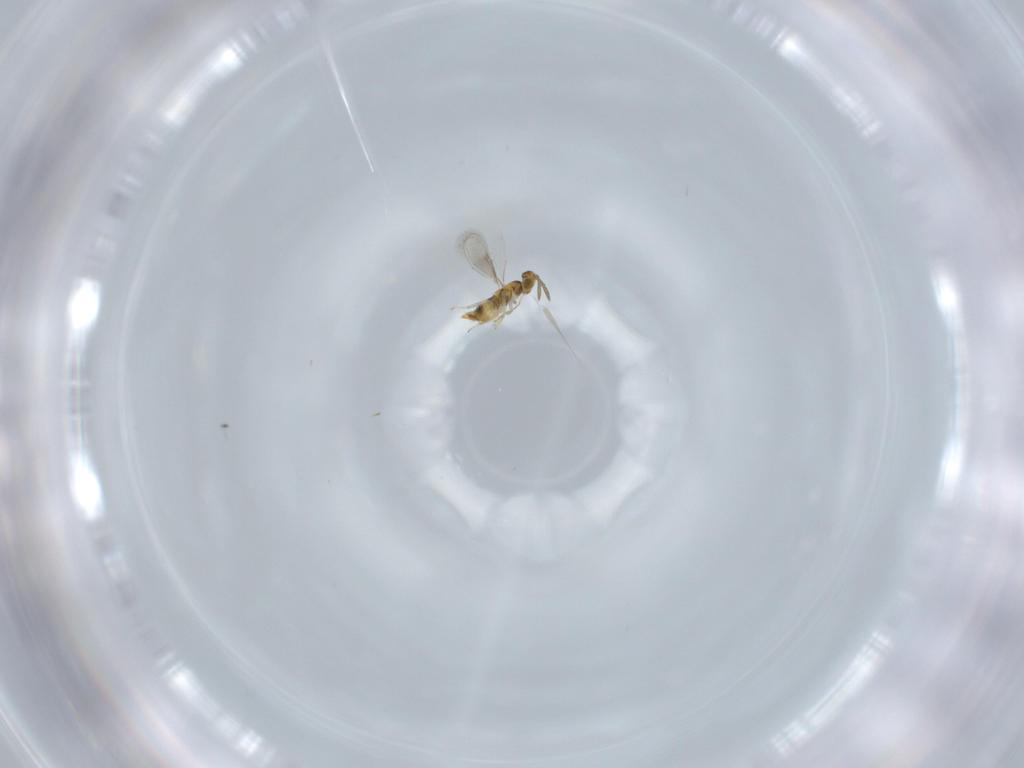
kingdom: Animalia
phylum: Arthropoda
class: Insecta
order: Hymenoptera
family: Aphelinidae
